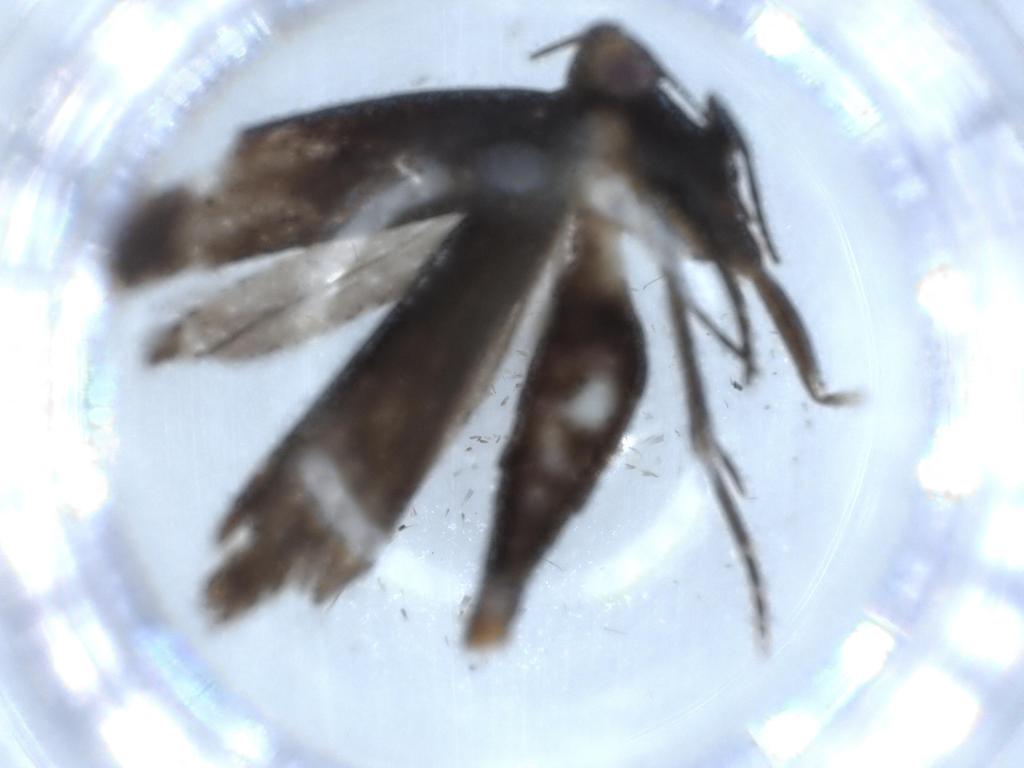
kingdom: Animalia
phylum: Arthropoda
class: Insecta
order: Lepidoptera
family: Gelechiidae
